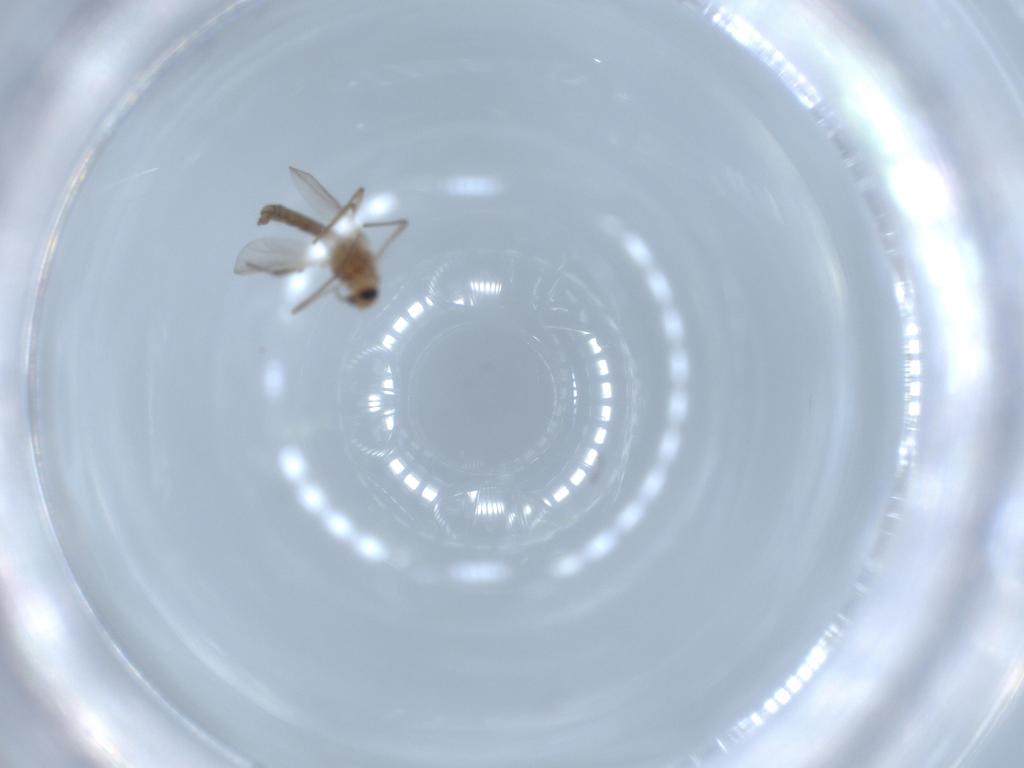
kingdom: Animalia
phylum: Arthropoda
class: Insecta
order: Diptera
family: Chironomidae
